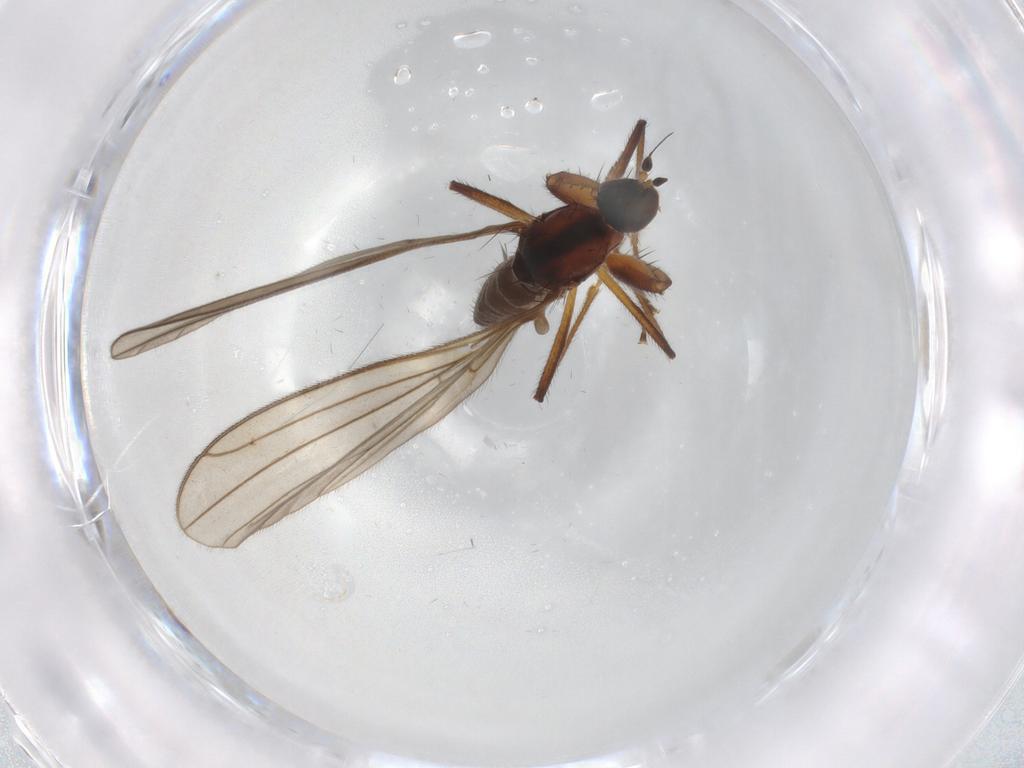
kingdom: Animalia
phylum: Arthropoda
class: Insecta
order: Diptera
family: Empididae
